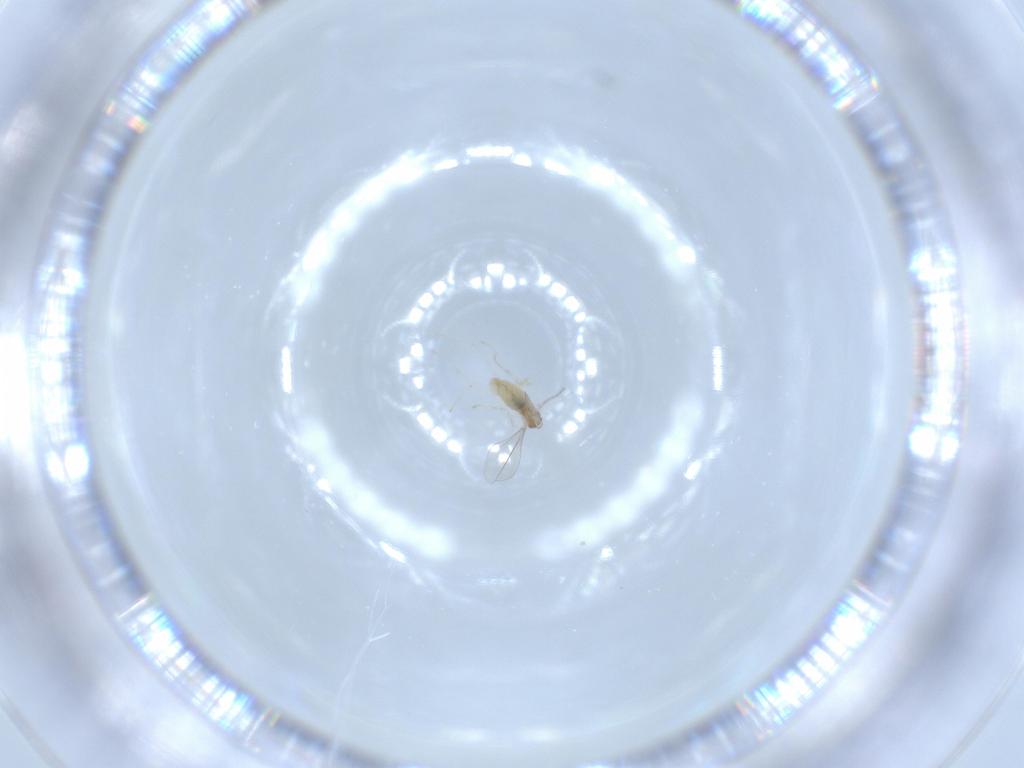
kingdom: Animalia
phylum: Arthropoda
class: Insecta
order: Diptera
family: Cecidomyiidae
